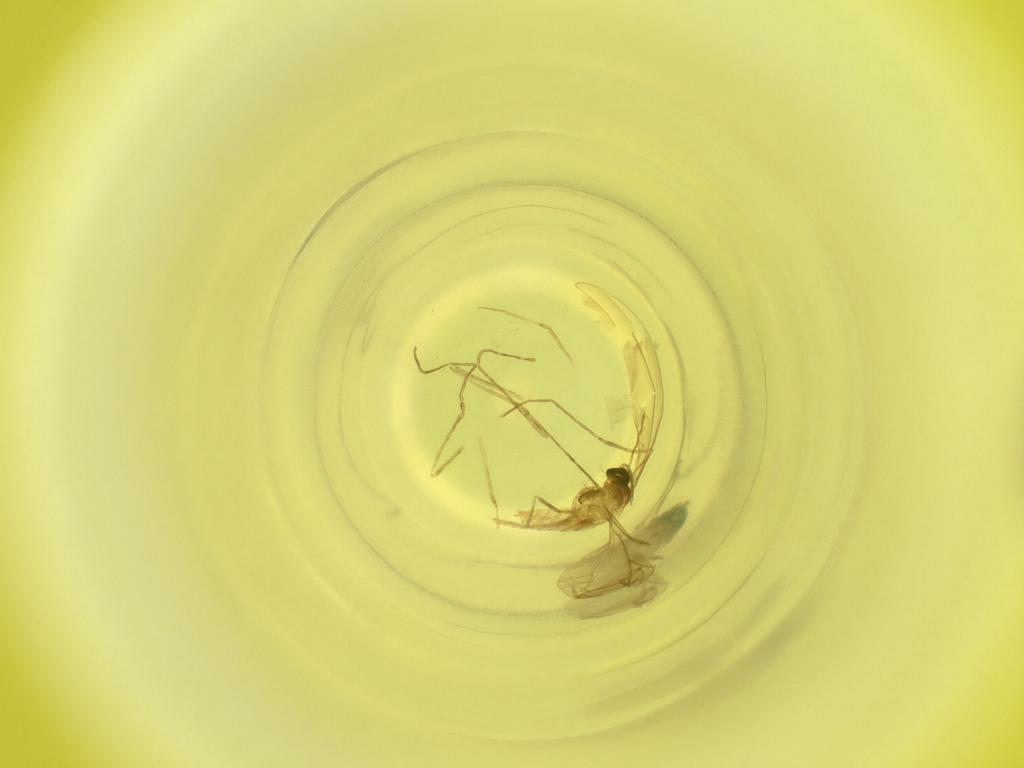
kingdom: Animalia
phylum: Arthropoda
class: Insecta
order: Diptera
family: Cecidomyiidae
